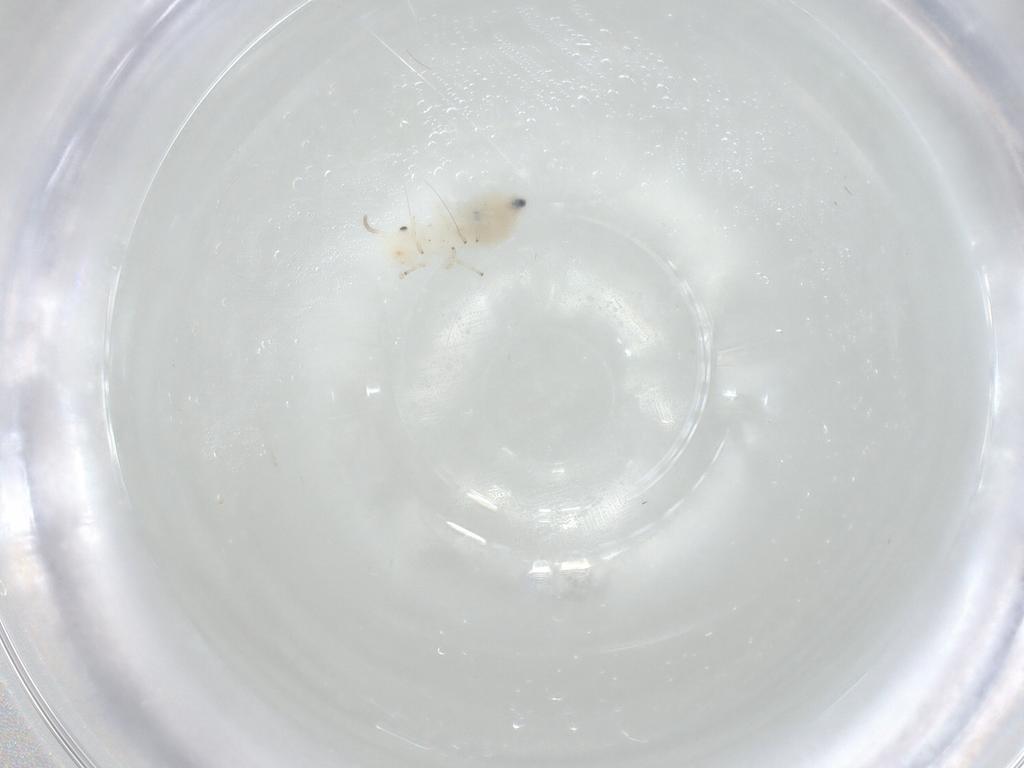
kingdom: Animalia
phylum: Arthropoda
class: Insecta
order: Psocodea
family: Caeciliusidae
